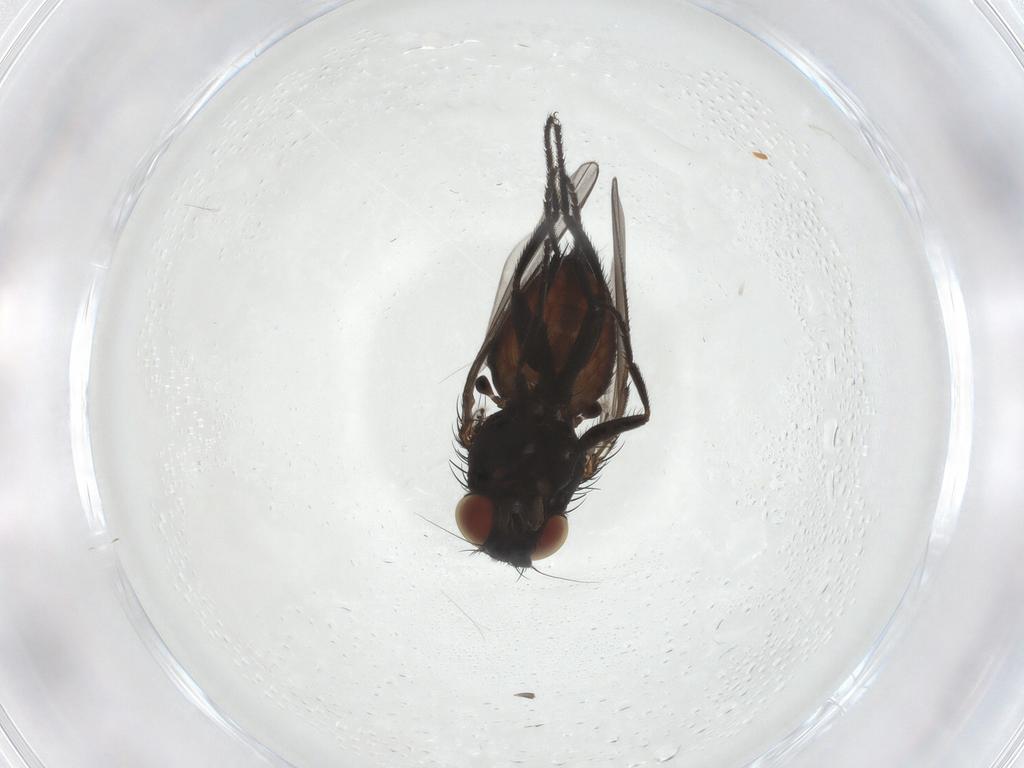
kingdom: Animalia
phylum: Arthropoda
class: Insecta
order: Diptera
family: Milichiidae
